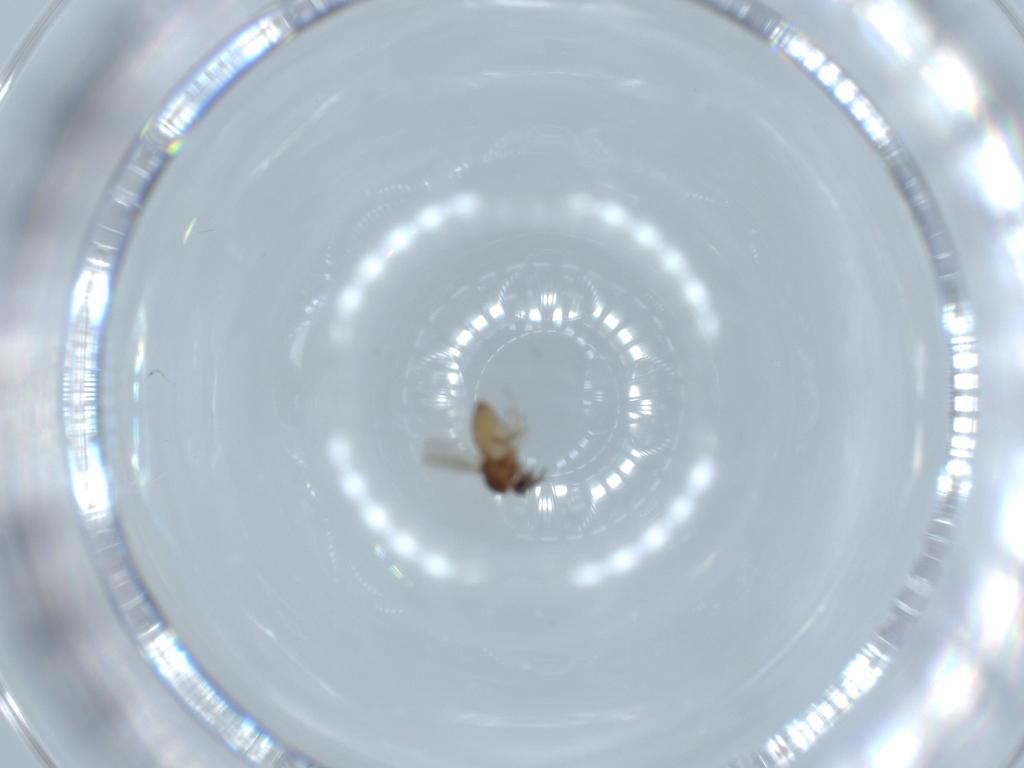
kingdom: Animalia
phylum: Arthropoda
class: Insecta
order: Diptera
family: Ceratopogonidae
